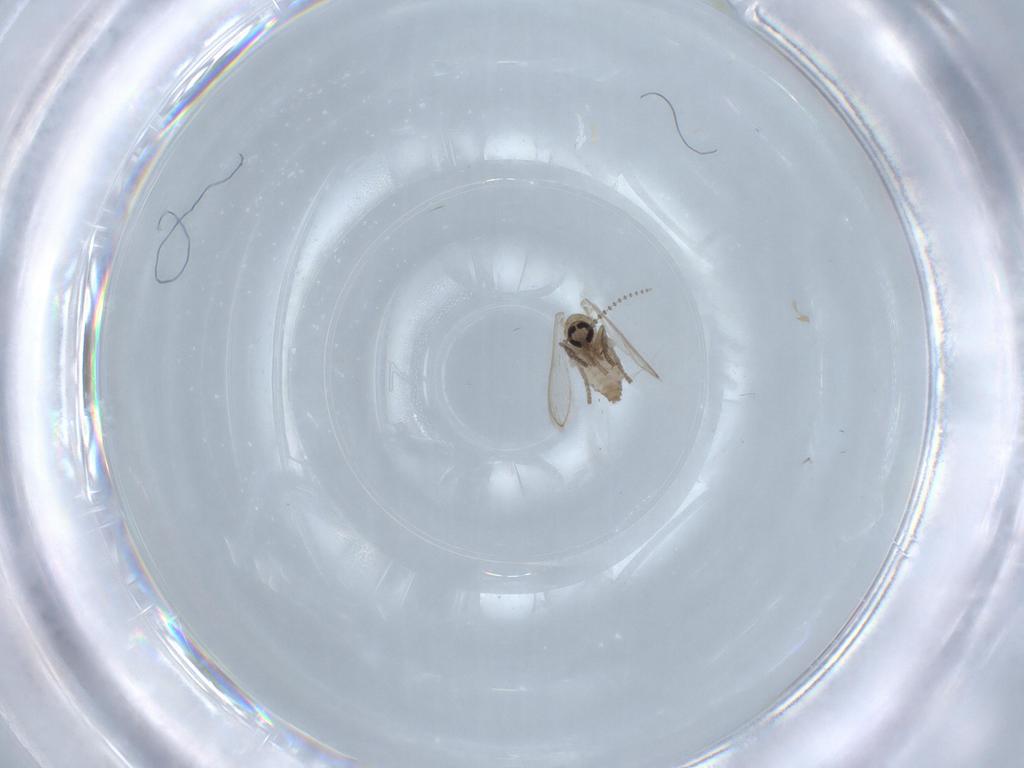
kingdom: Animalia
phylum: Arthropoda
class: Insecta
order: Diptera
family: Psychodidae
